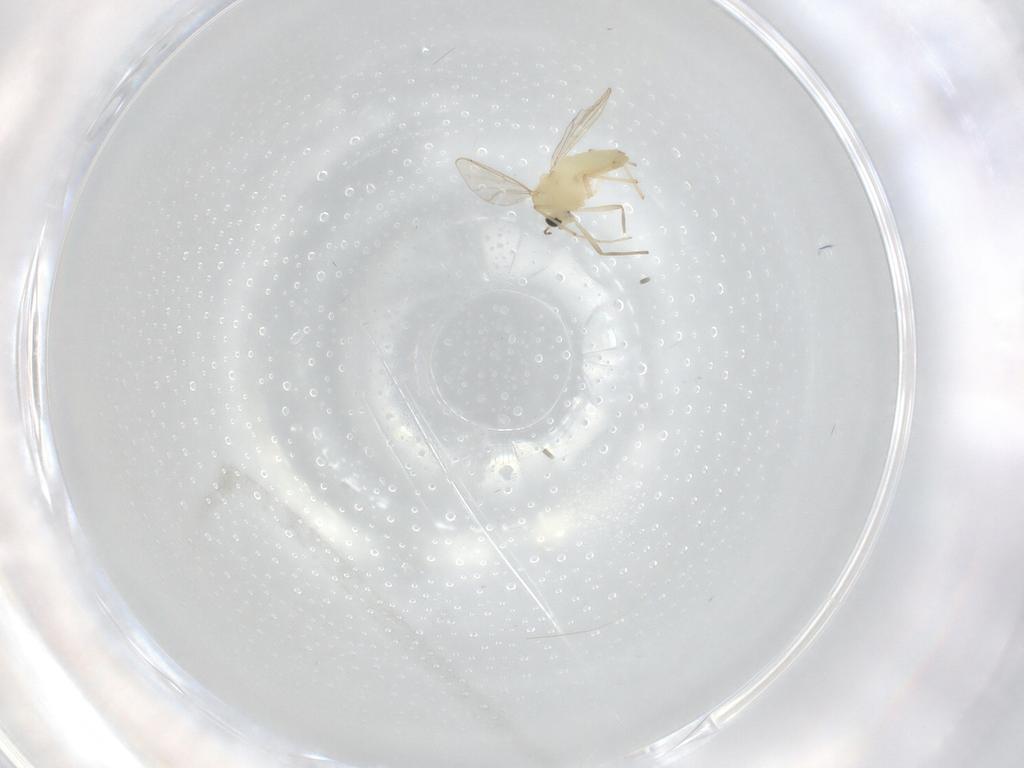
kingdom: Animalia
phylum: Arthropoda
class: Insecta
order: Diptera
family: Chironomidae
